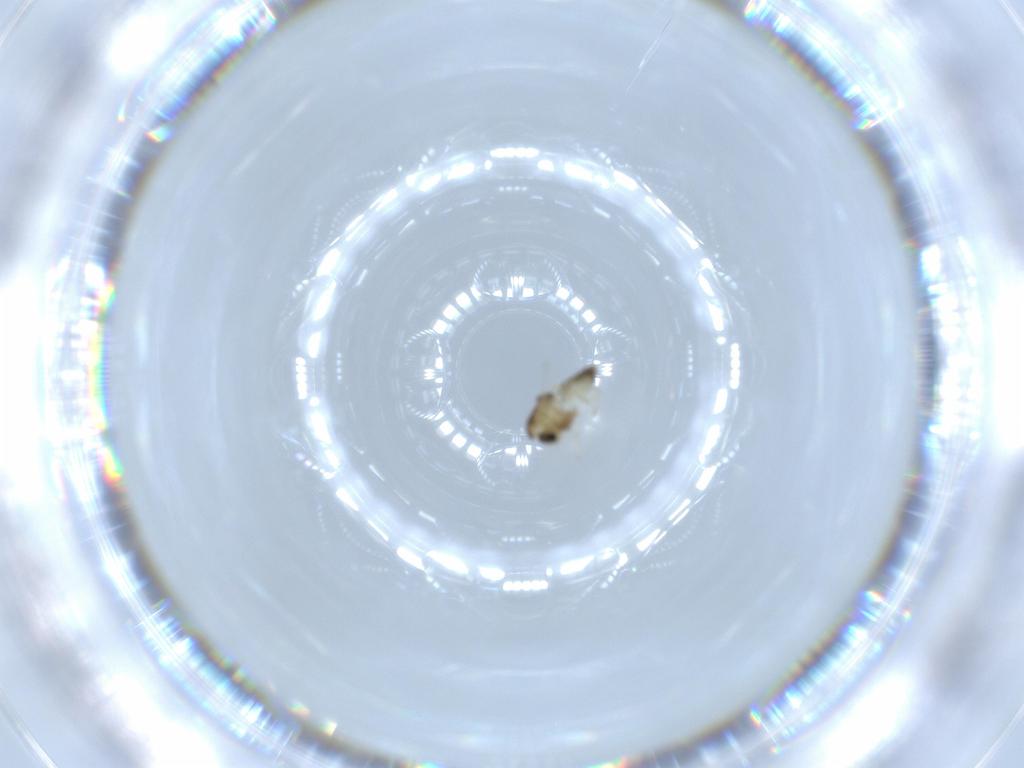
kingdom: Animalia
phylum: Arthropoda
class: Insecta
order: Diptera
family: Chironomidae
